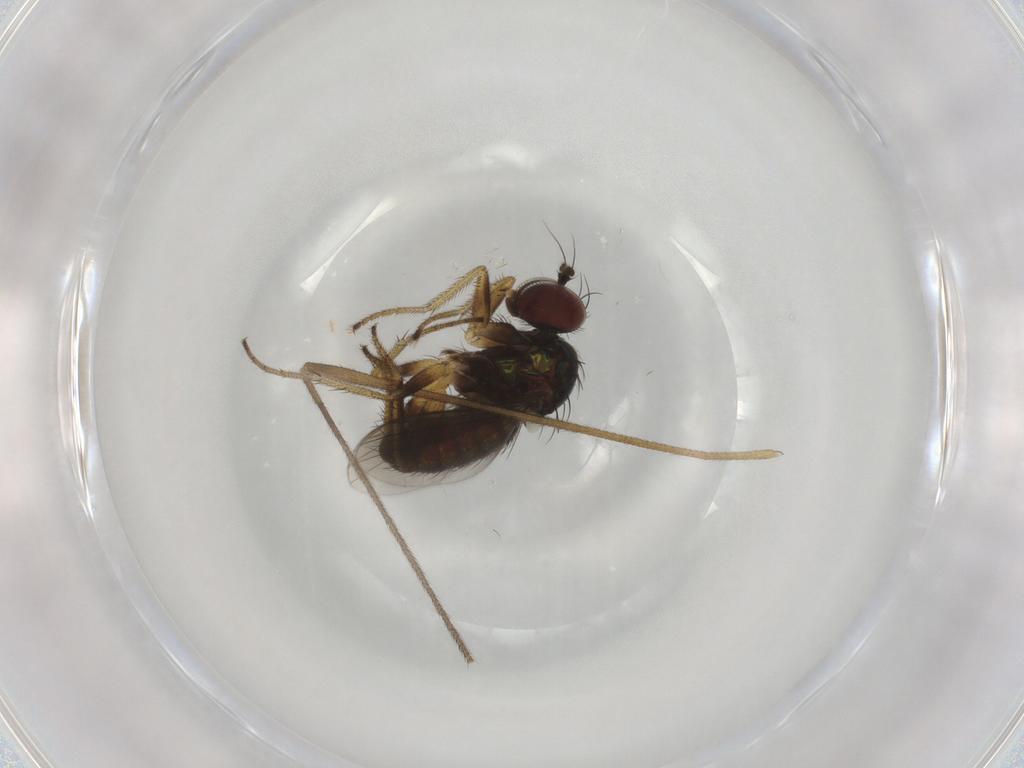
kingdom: Animalia
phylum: Arthropoda
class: Insecta
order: Diptera
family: Dolichopodidae
